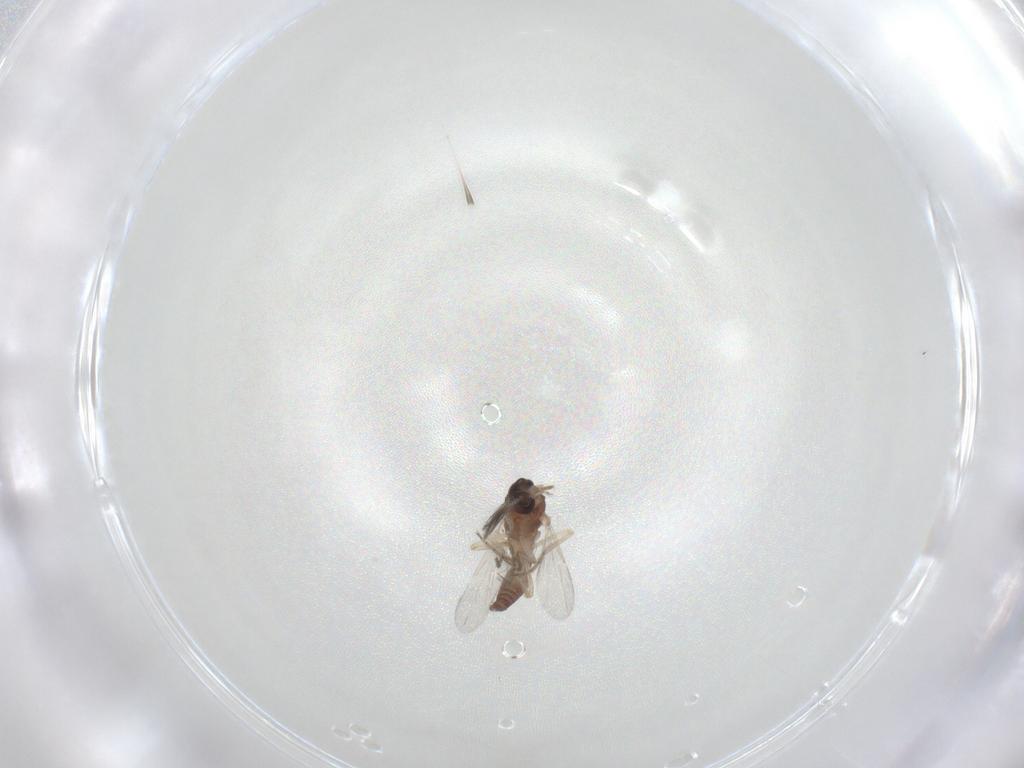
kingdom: Animalia
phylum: Arthropoda
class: Insecta
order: Diptera
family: Ceratopogonidae
